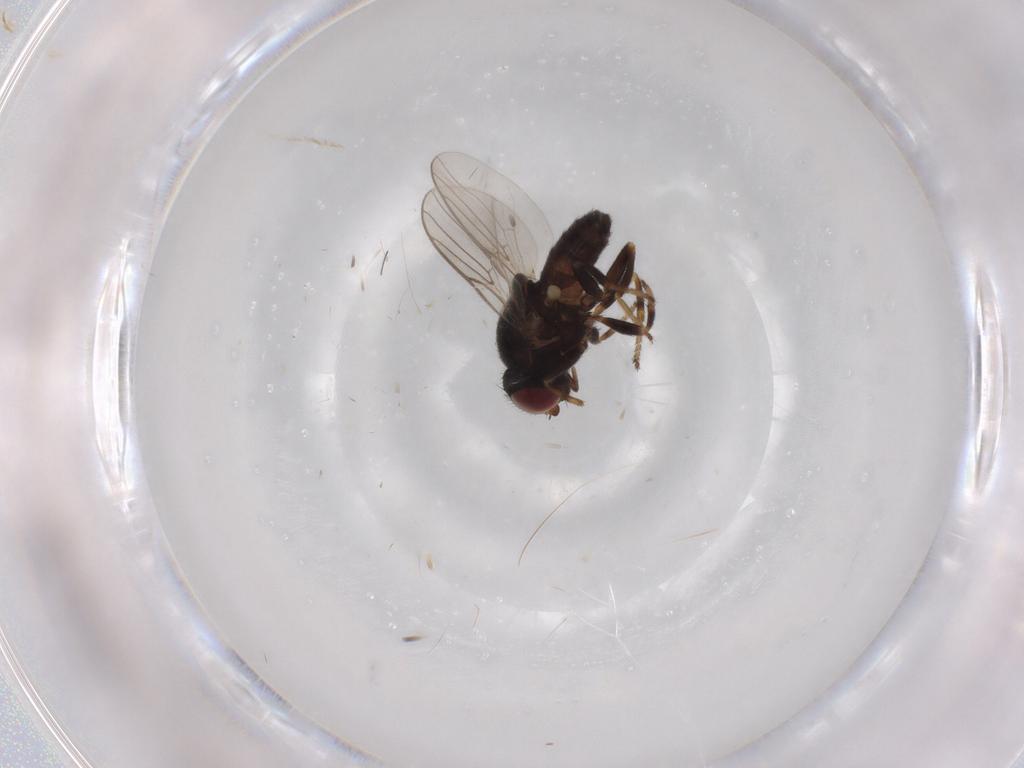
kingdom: Animalia
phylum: Arthropoda
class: Insecta
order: Diptera
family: Chloropidae
